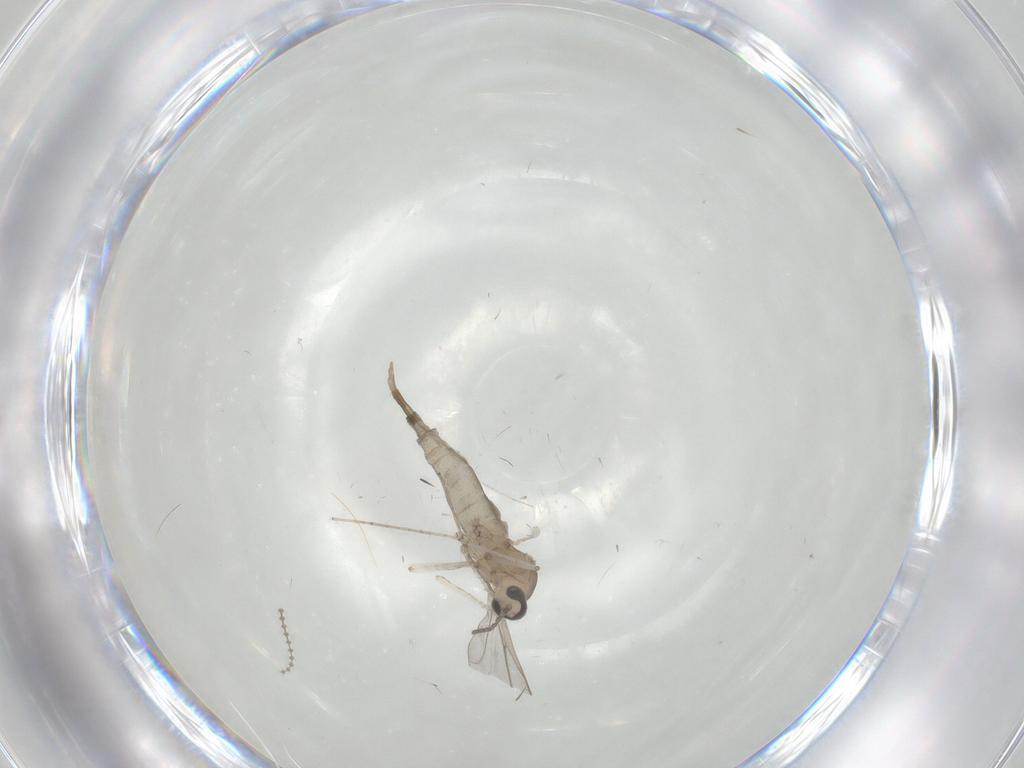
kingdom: Animalia
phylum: Arthropoda
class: Insecta
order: Diptera
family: Cecidomyiidae
